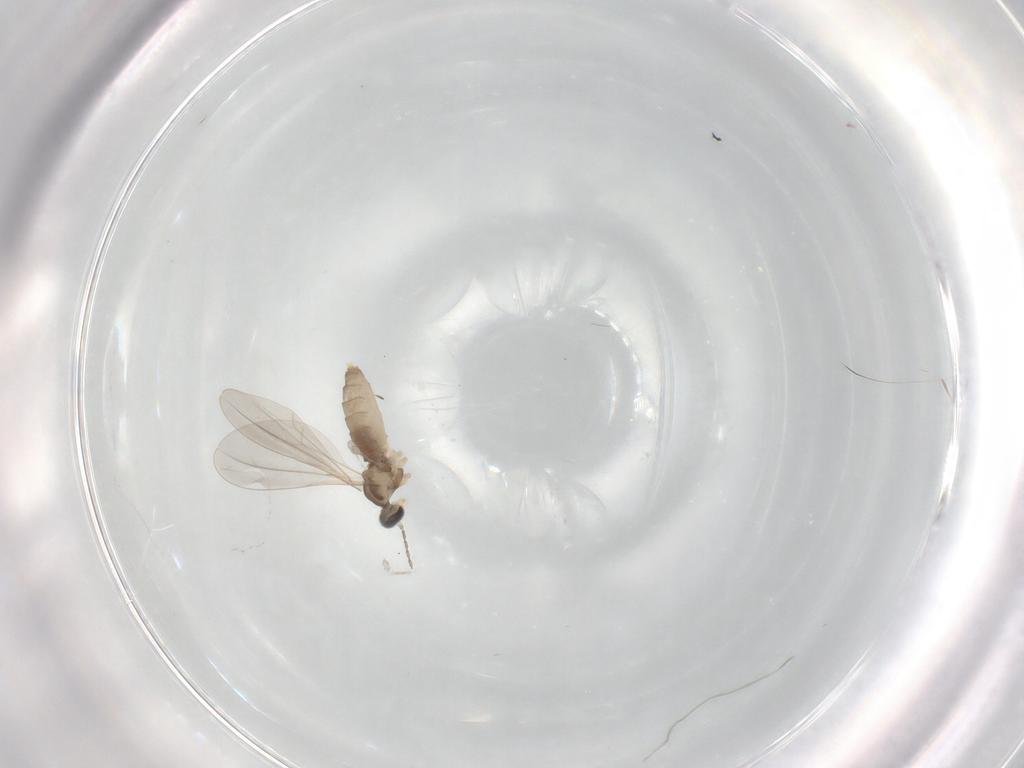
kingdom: Animalia
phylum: Arthropoda
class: Insecta
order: Diptera
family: Cecidomyiidae
